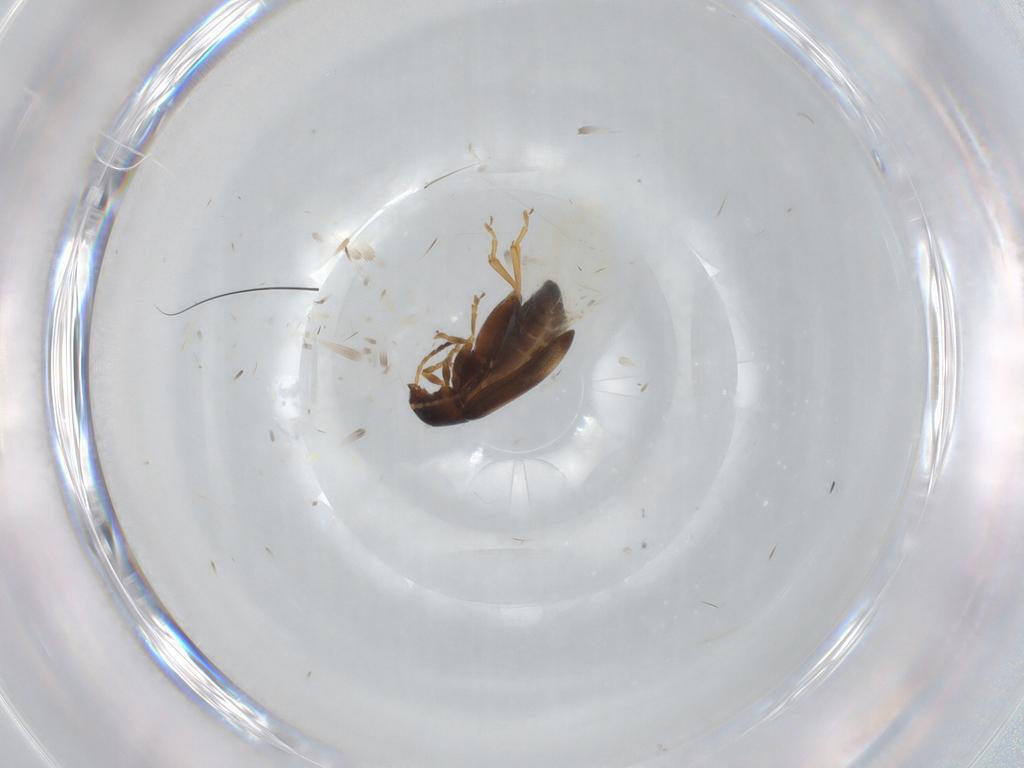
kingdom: Animalia
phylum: Arthropoda
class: Insecta
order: Coleoptera
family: Chrysomelidae
